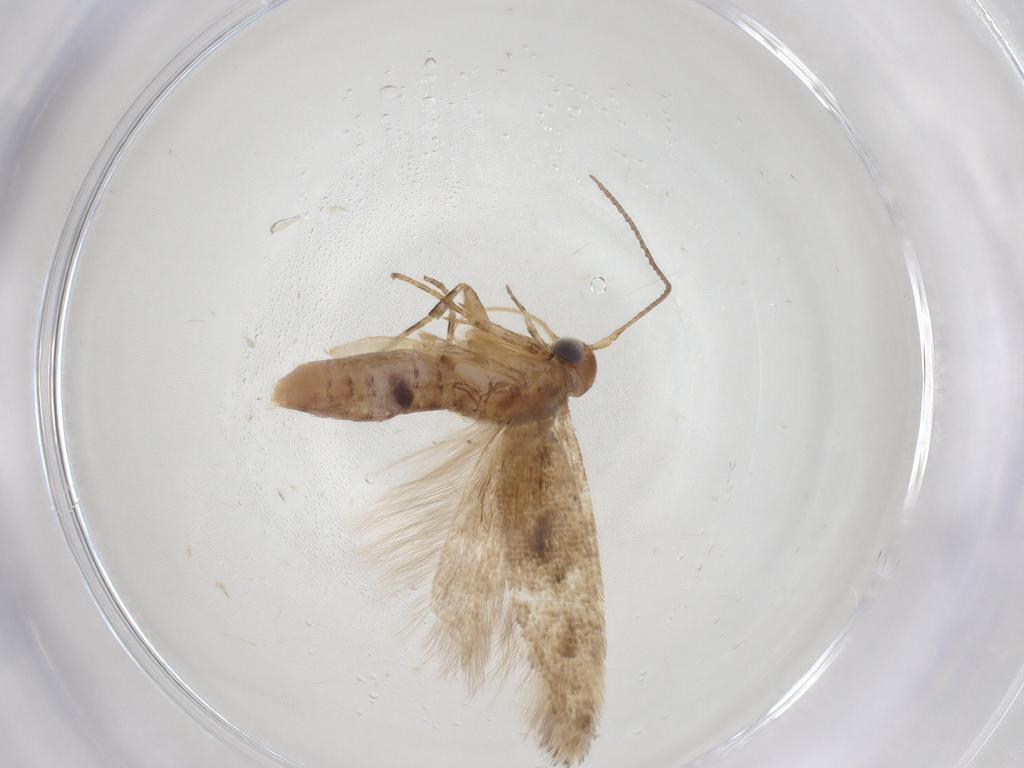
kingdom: Animalia
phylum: Arthropoda
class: Insecta
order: Lepidoptera
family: Gelechiidae
